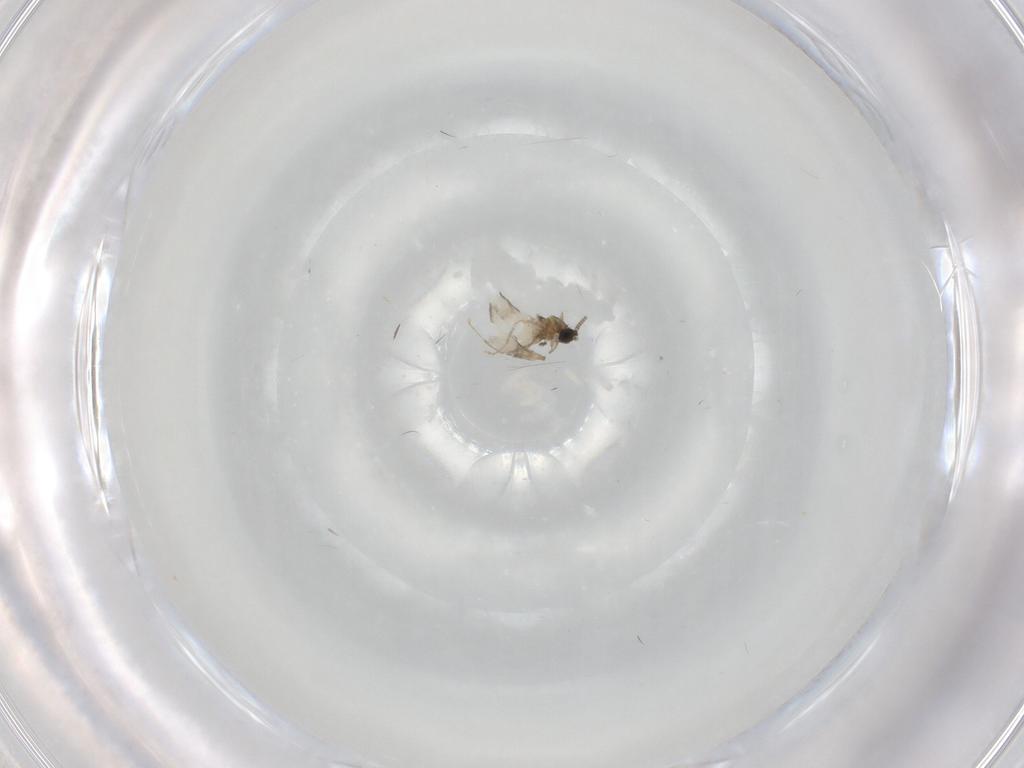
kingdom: Animalia
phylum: Arthropoda
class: Insecta
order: Diptera
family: Cecidomyiidae
